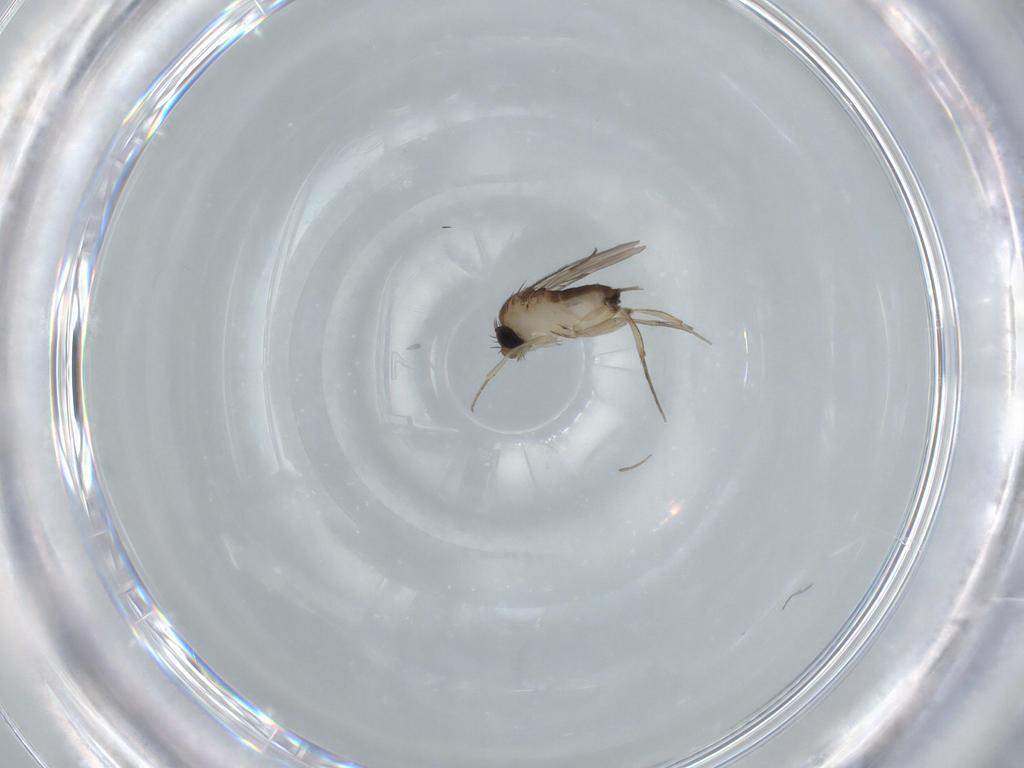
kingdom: Animalia
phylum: Arthropoda
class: Insecta
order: Diptera
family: Phoridae
